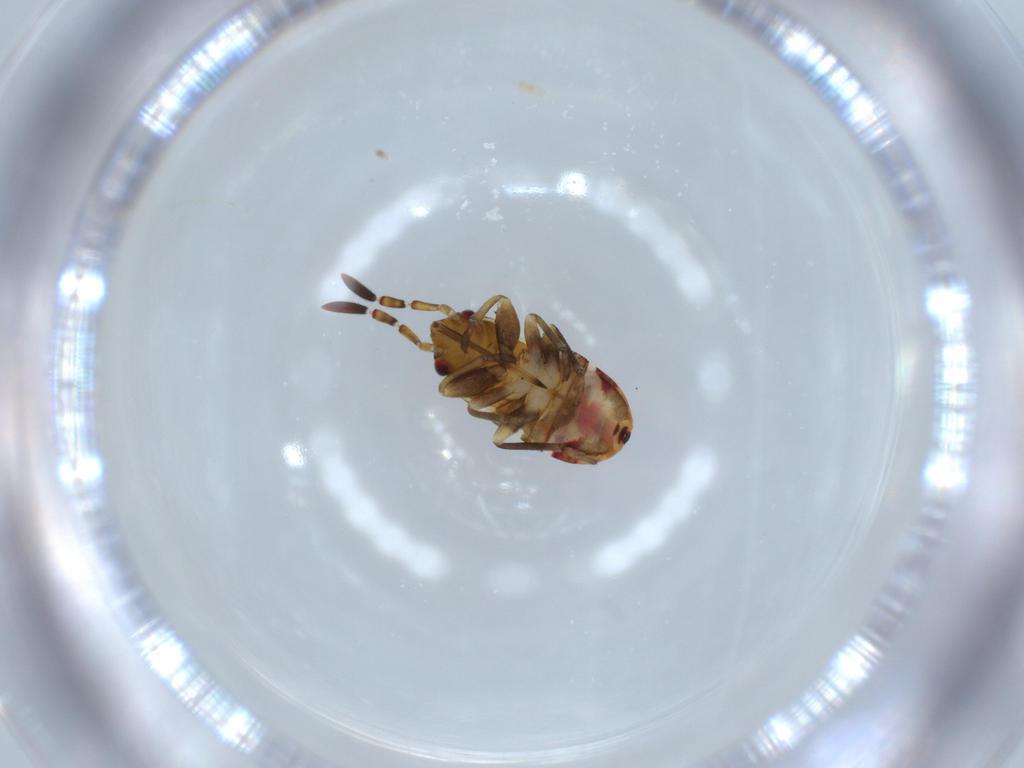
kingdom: Animalia
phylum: Arthropoda
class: Insecta
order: Hemiptera
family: Rhyparochromidae
